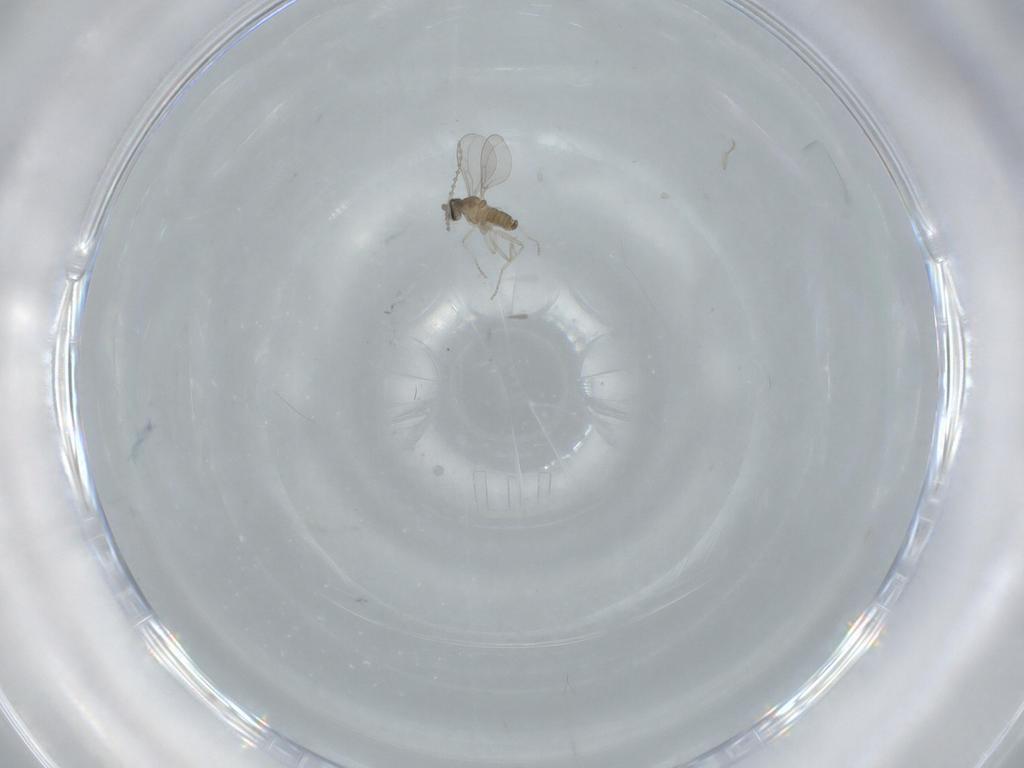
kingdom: Animalia
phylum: Arthropoda
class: Insecta
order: Diptera
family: Cecidomyiidae
